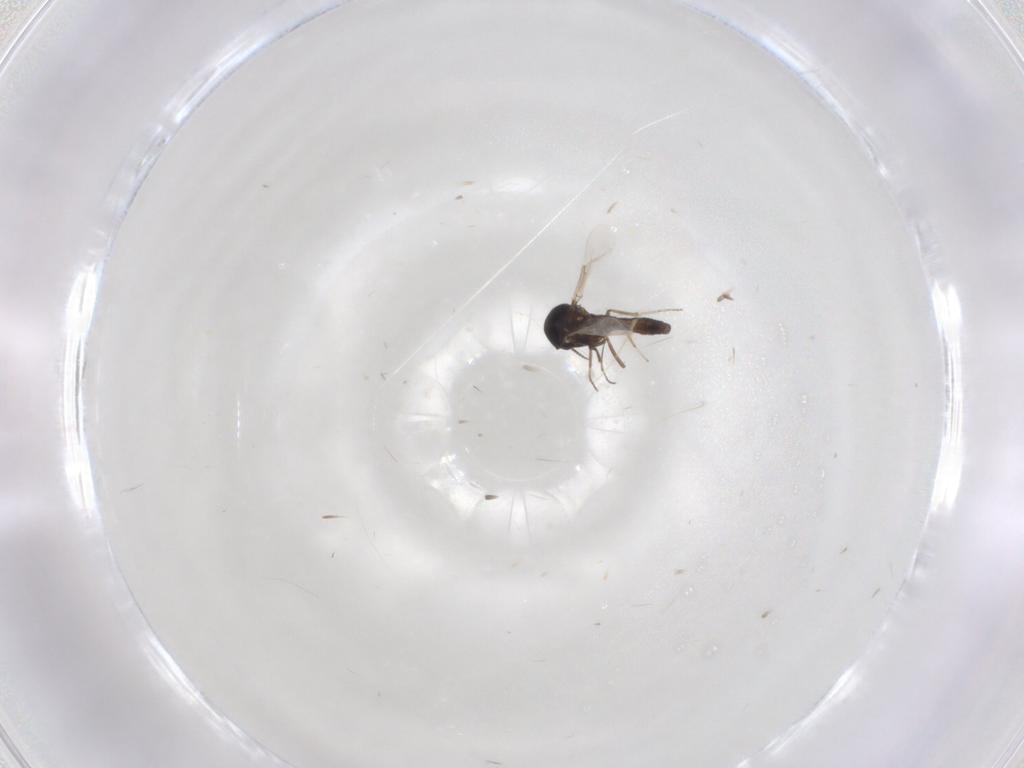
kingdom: Animalia
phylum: Arthropoda
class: Insecta
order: Diptera
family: Ceratopogonidae
